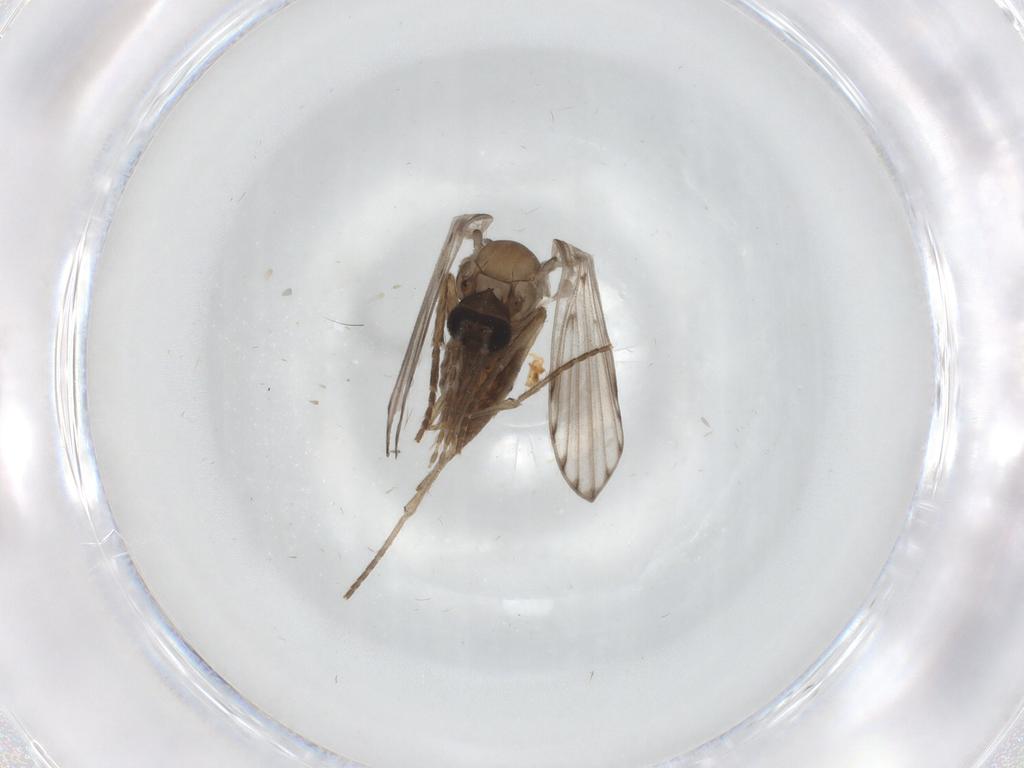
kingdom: Animalia
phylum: Arthropoda
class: Insecta
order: Diptera
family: Psychodidae
